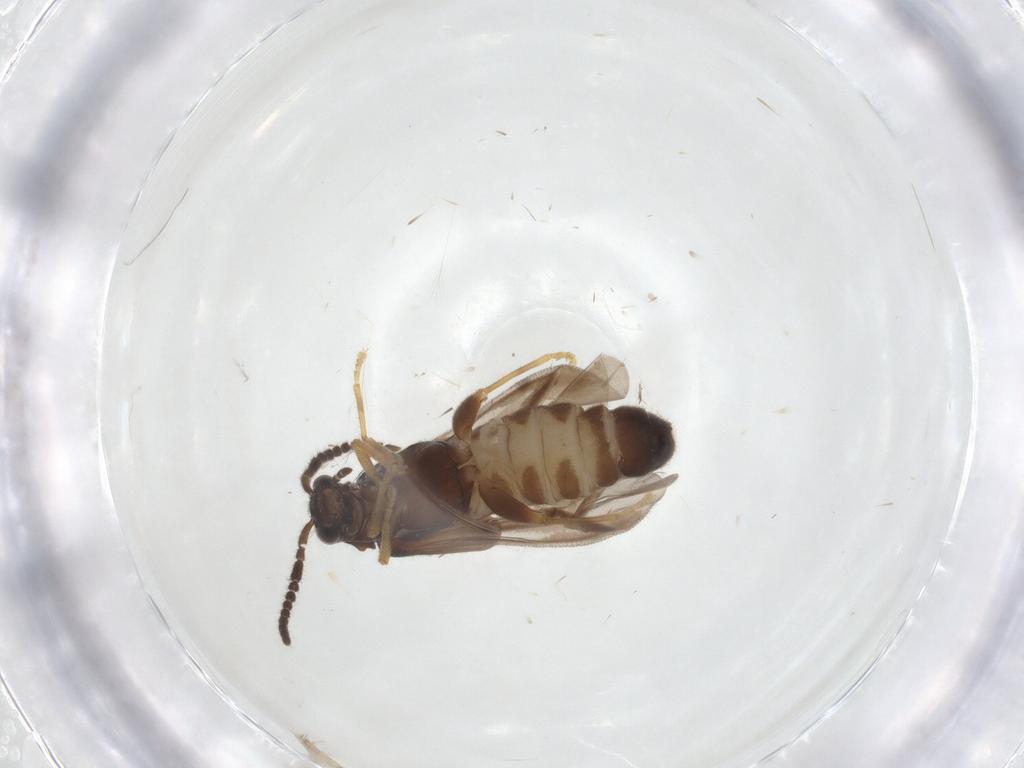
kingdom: Animalia
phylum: Arthropoda
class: Insecta
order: Coleoptera
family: Cantharidae
